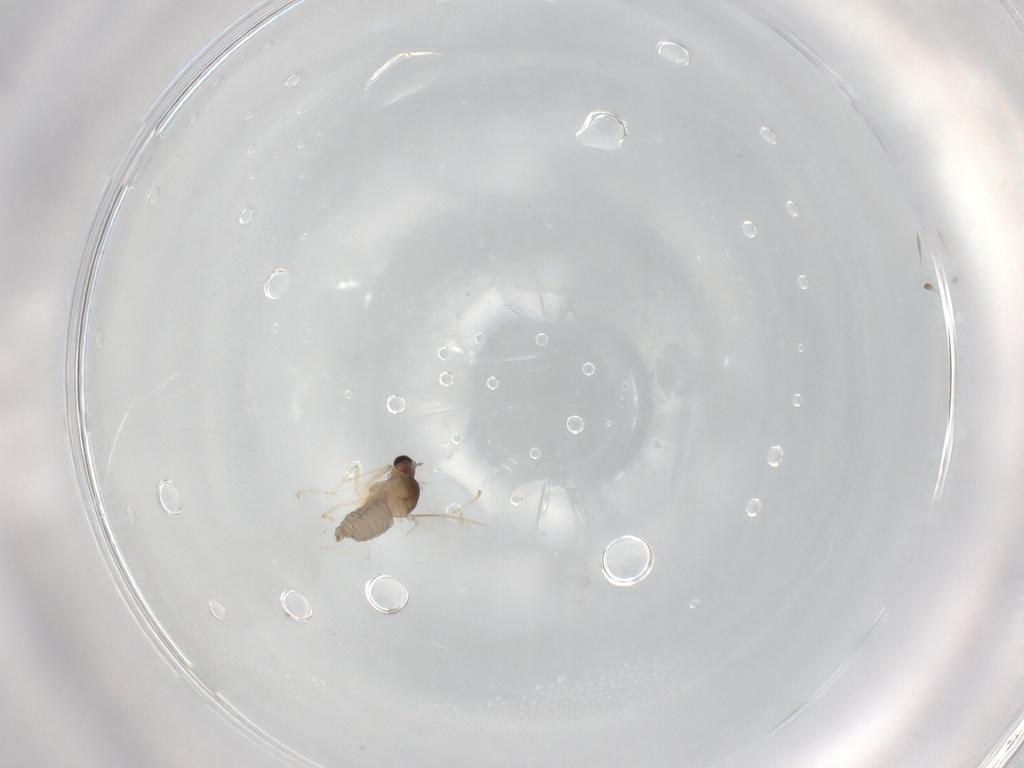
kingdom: Animalia
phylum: Arthropoda
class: Insecta
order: Diptera
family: Cecidomyiidae
